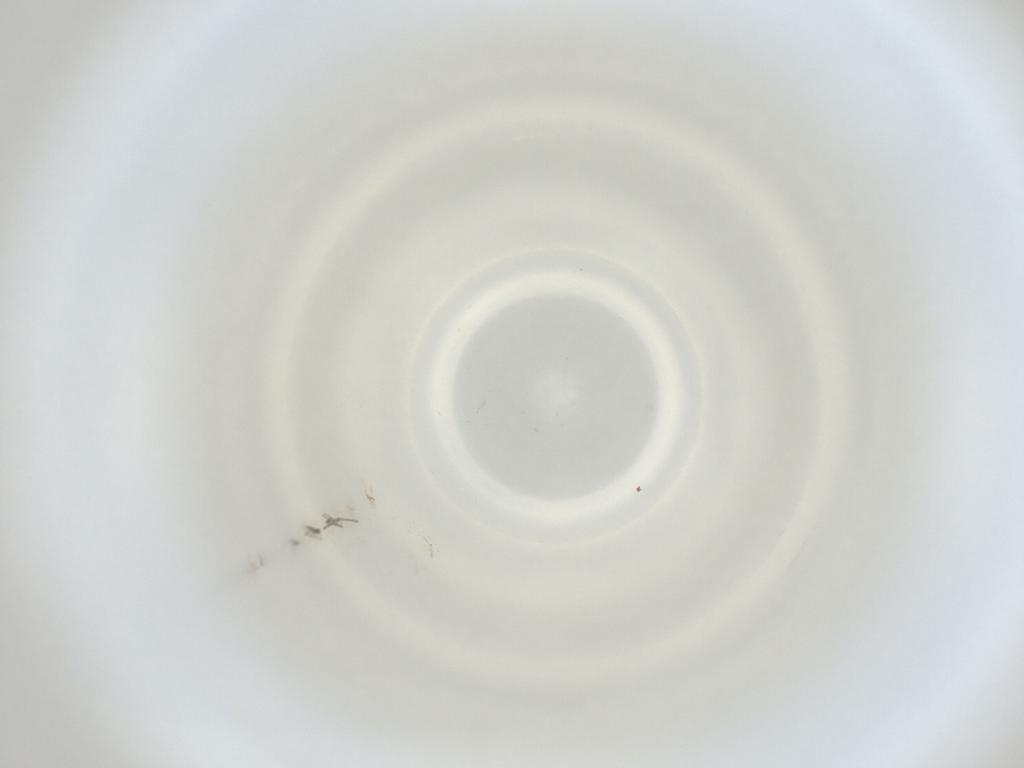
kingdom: Animalia
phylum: Arthropoda
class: Insecta
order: Diptera
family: Cecidomyiidae
